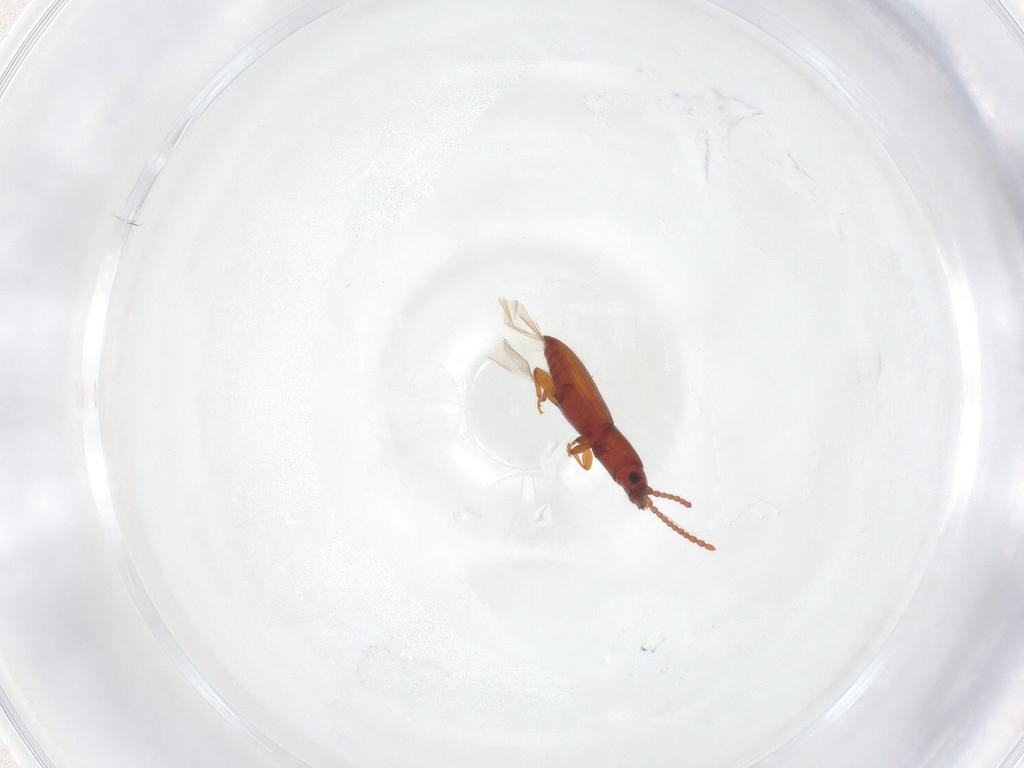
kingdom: Animalia
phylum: Arthropoda
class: Insecta
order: Coleoptera
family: Laemophloeidae
